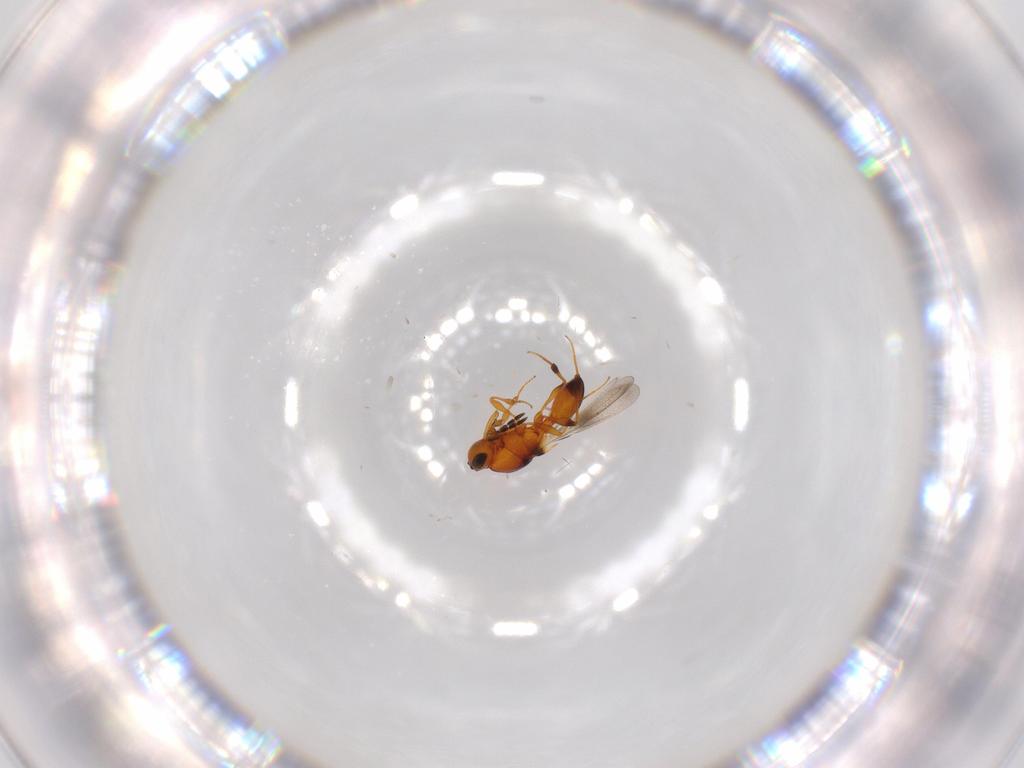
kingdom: Animalia
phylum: Arthropoda
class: Insecta
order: Hymenoptera
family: Platygastridae
